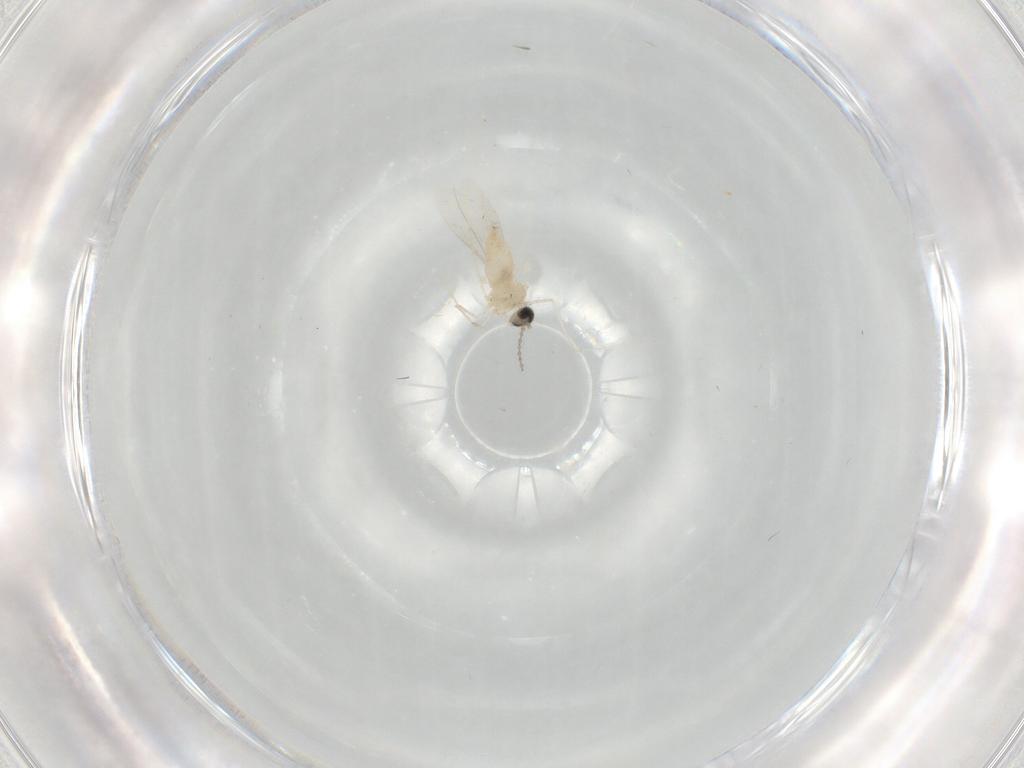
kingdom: Animalia
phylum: Arthropoda
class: Insecta
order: Diptera
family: Cecidomyiidae
